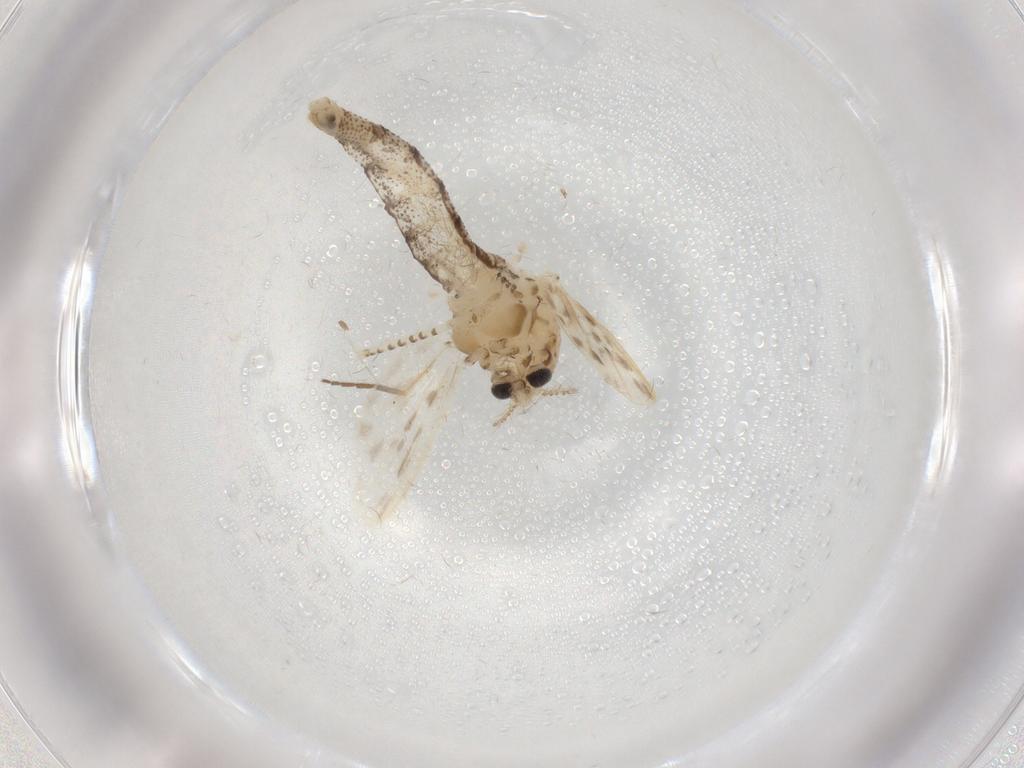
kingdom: Animalia
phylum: Arthropoda
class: Insecta
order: Diptera
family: Chaoboridae
